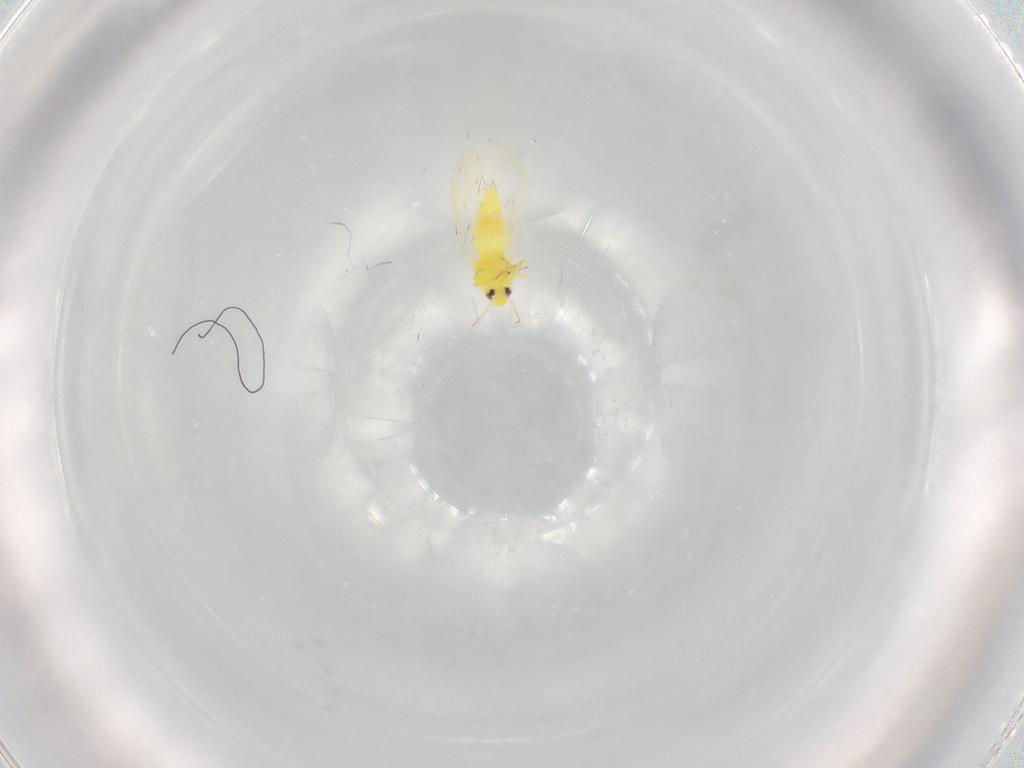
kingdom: Animalia
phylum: Arthropoda
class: Insecta
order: Hemiptera
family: Aleyrodidae
